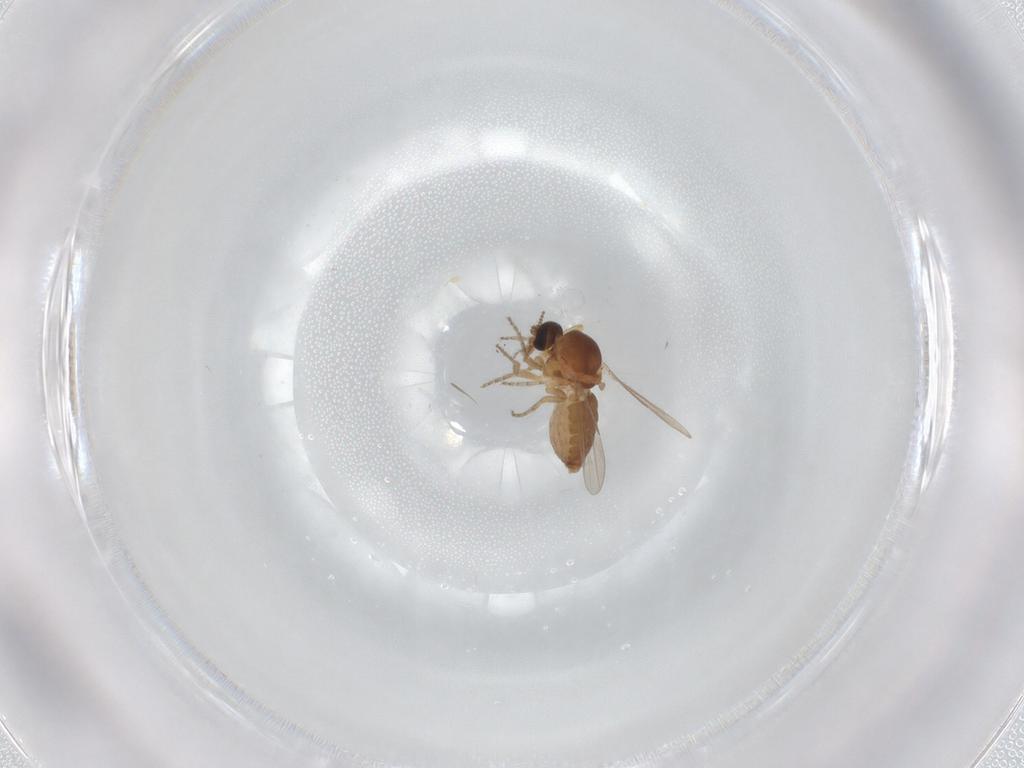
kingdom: Animalia
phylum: Arthropoda
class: Insecta
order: Diptera
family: Ceratopogonidae
